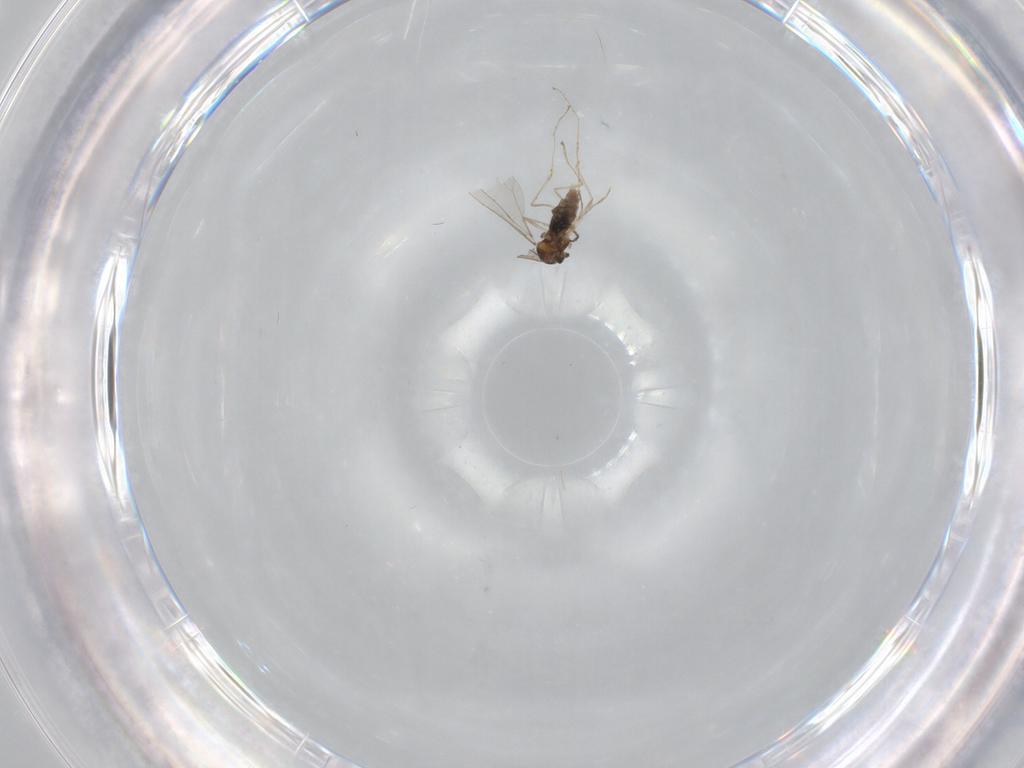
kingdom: Animalia
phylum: Arthropoda
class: Insecta
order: Diptera
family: Ceratopogonidae
